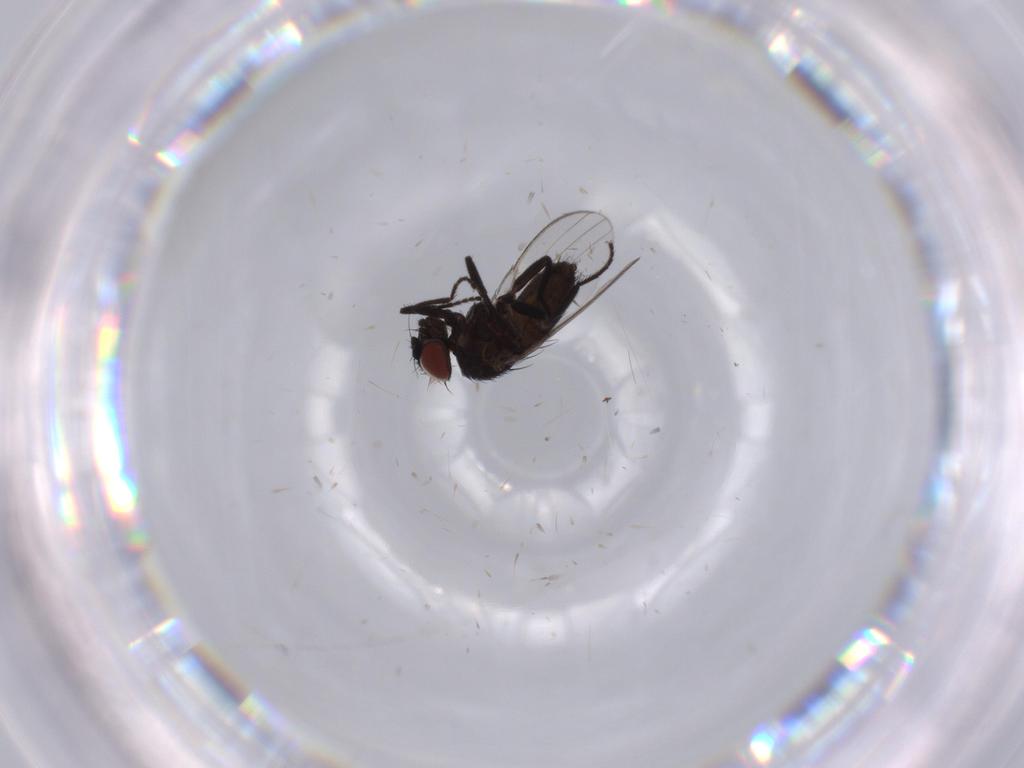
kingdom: Animalia
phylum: Arthropoda
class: Insecta
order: Diptera
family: Milichiidae
